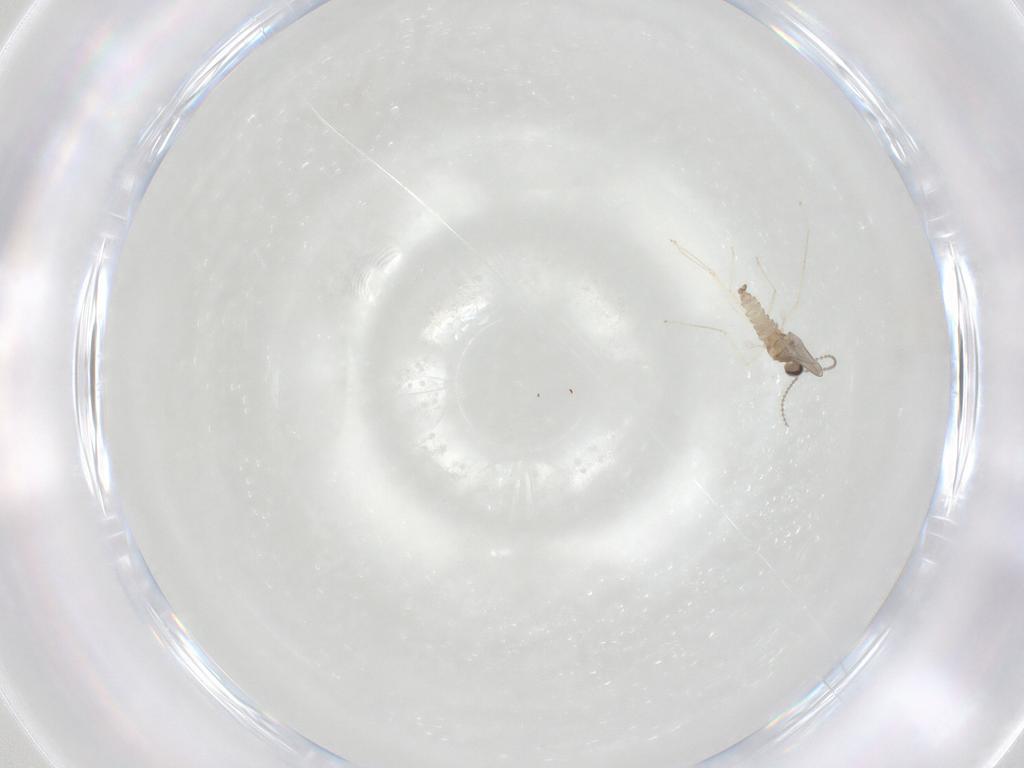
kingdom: Animalia
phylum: Arthropoda
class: Insecta
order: Diptera
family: Cecidomyiidae
